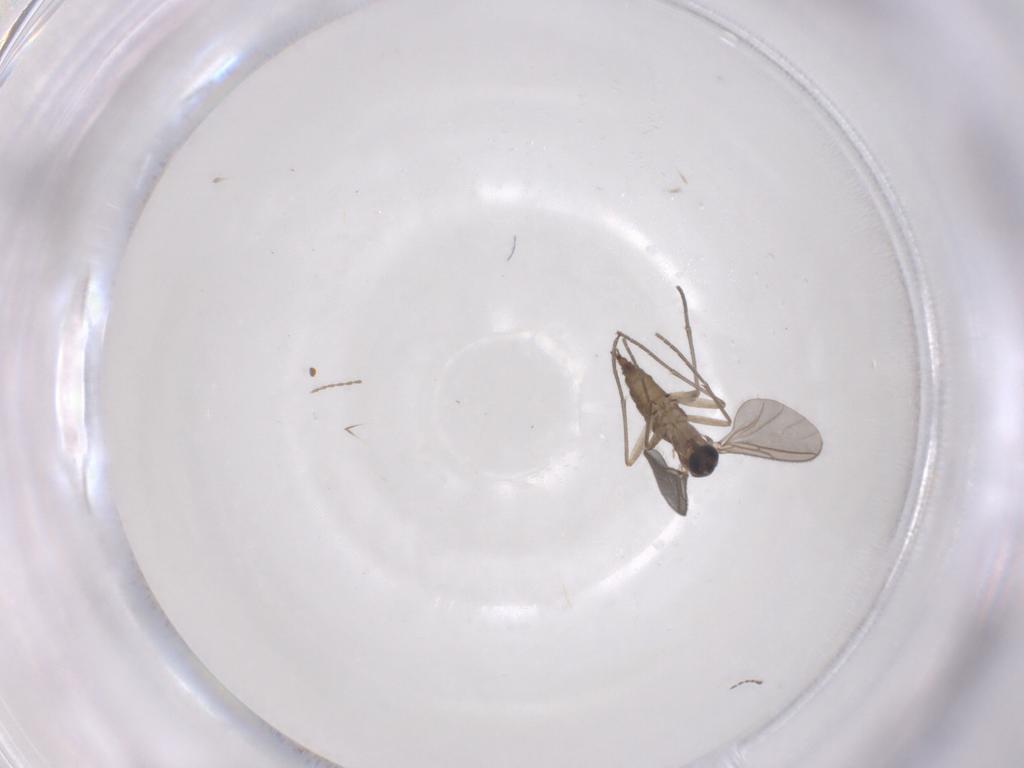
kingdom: Animalia
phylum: Arthropoda
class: Insecta
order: Diptera
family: Sciaridae
